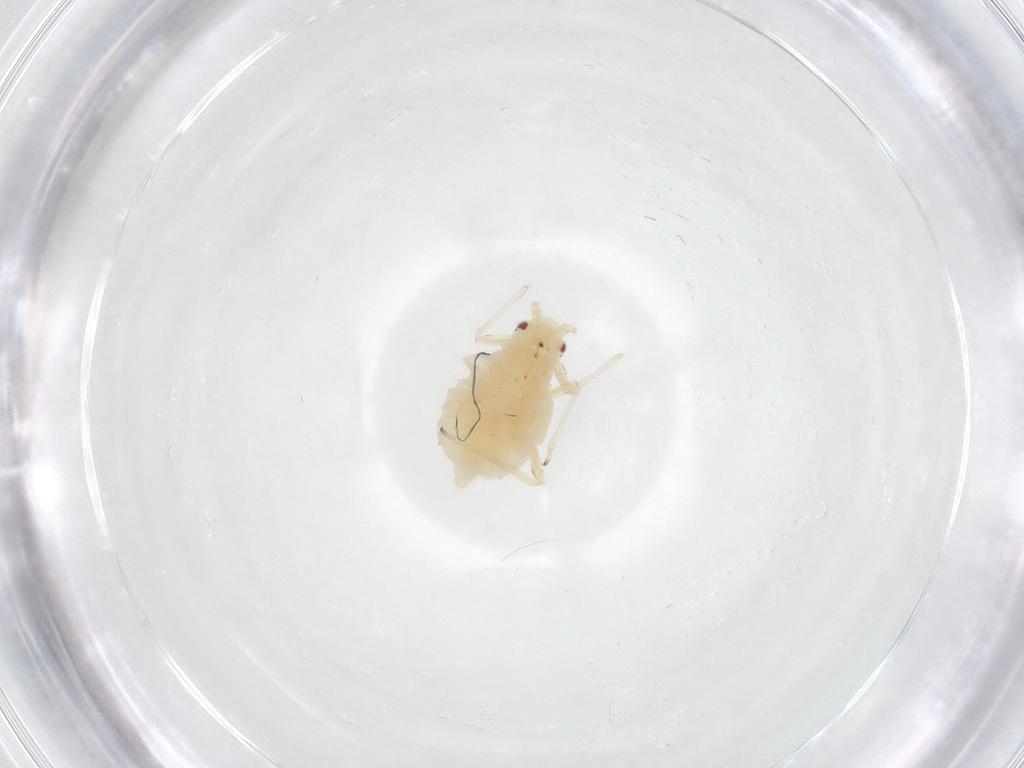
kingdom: Animalia
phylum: Arthropoda
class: Insecta
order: Hemiptera
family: Aphididae
